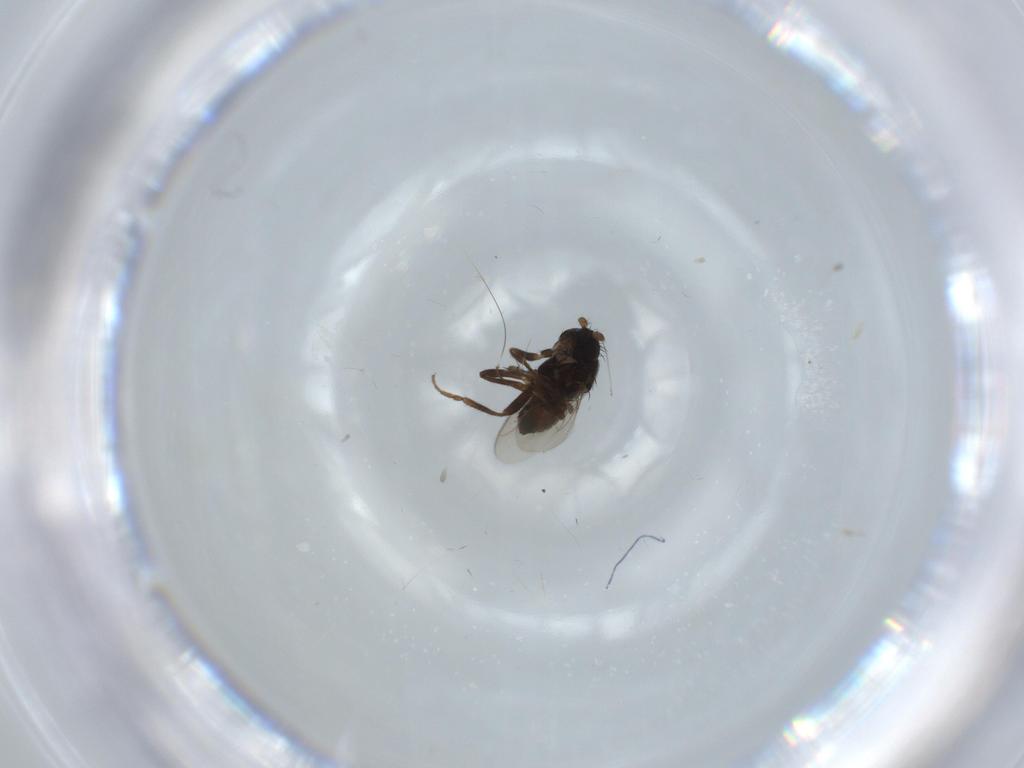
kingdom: Animalia
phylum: Arthropoda
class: Insecta
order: Diptera
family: Sphaeroceridae
